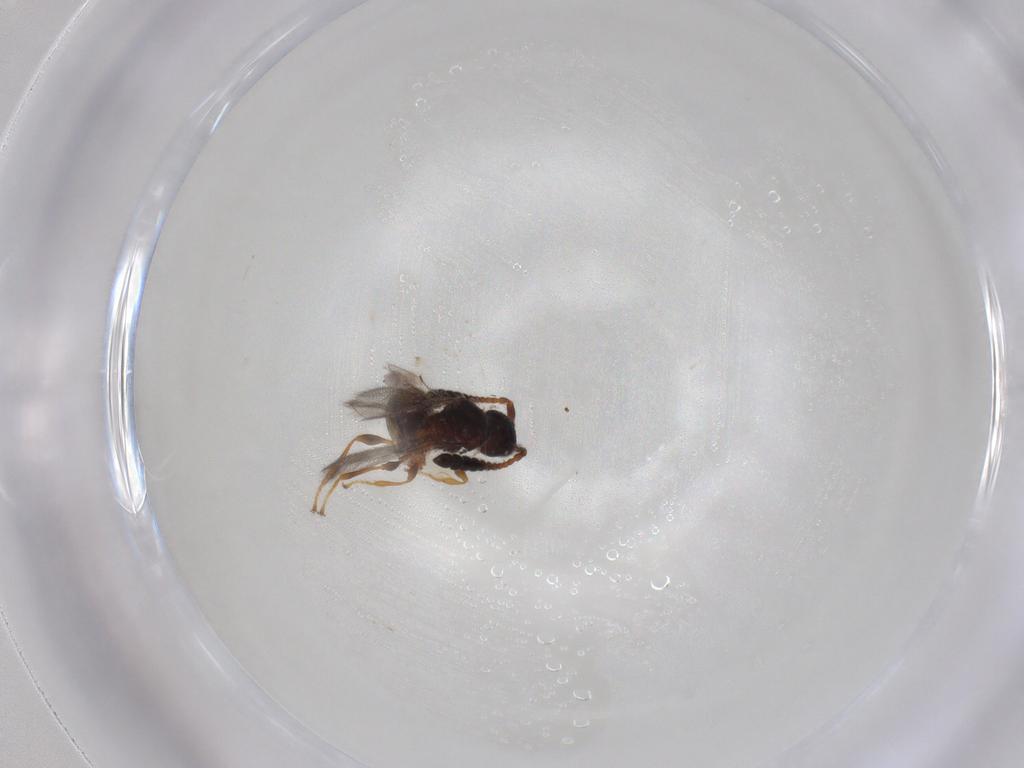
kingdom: Animalia
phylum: Arthropoda
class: Insecta
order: Hymenoptera
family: Diapriidae
